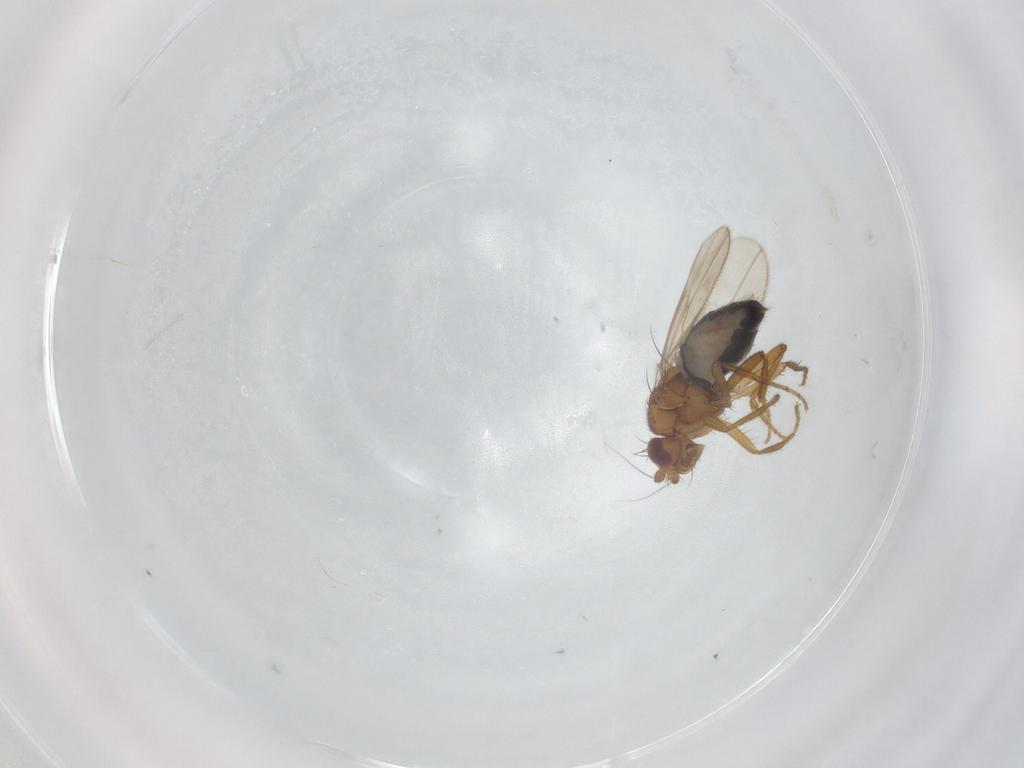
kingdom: Animalia
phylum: Arthropoda
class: Insecta
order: Diptera
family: Sphaeroceridae
